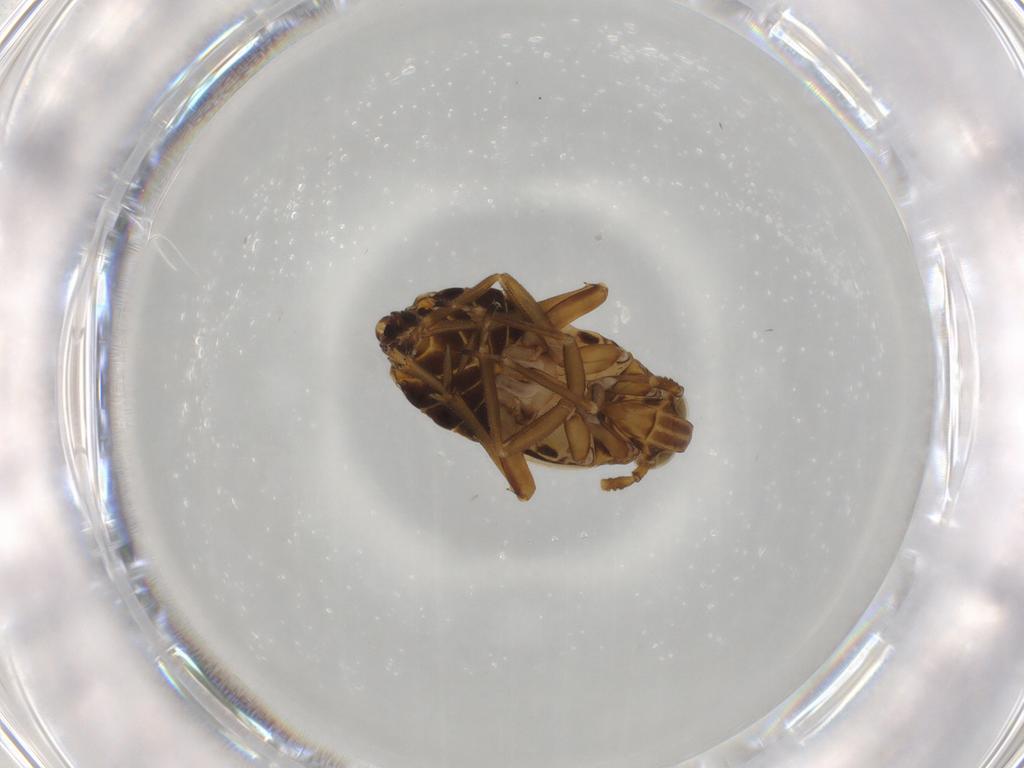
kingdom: Animalia
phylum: Arthropoda
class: Insecta
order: Hemiptera
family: Delphacidae
